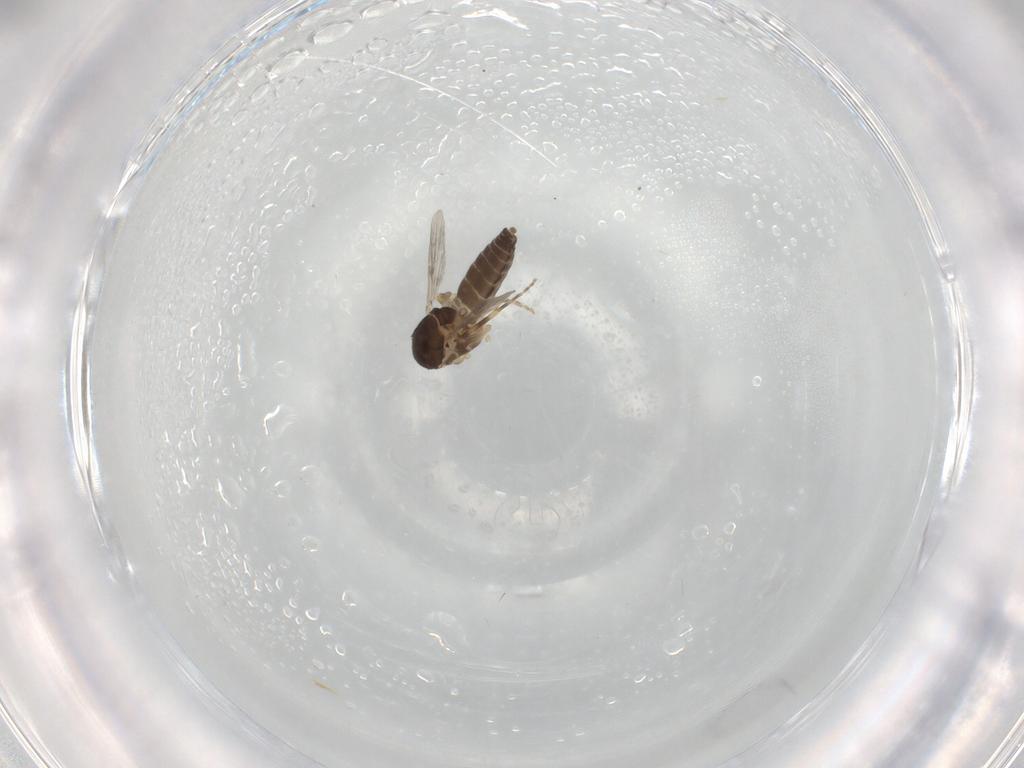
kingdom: Animalia
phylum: Arthropoda
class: Insecta
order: Diptera
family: Ceratopogonidae
